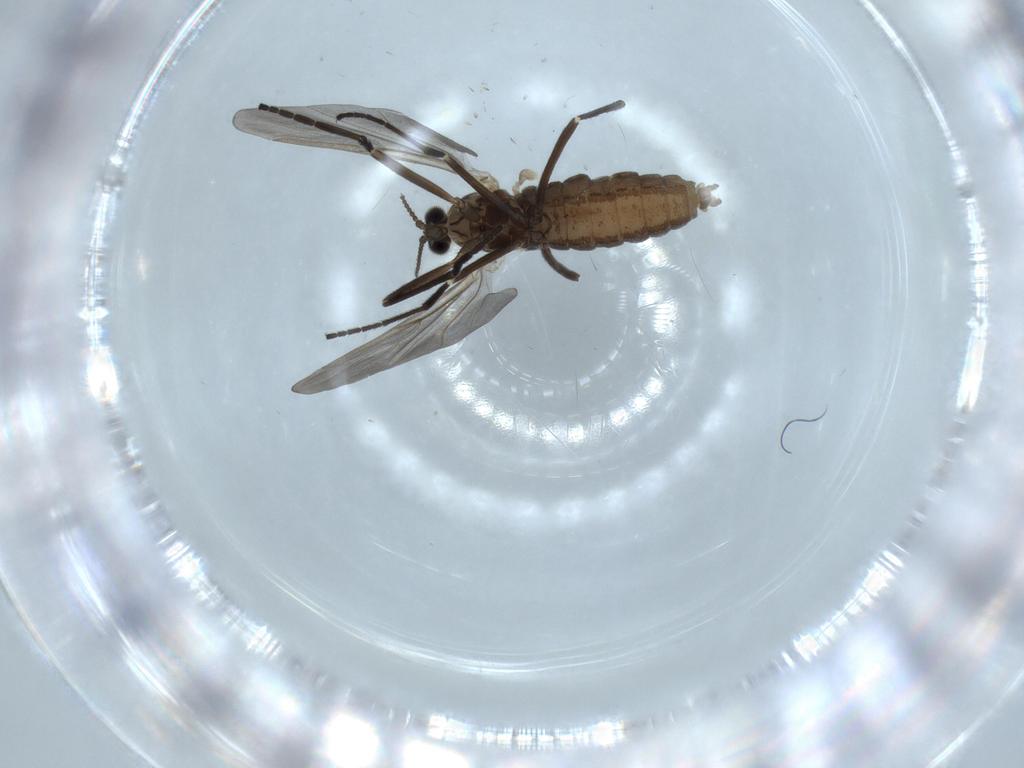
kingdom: Animalia
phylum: Arthropoda
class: Insecta
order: Diptera
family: Cecidomyiidae
